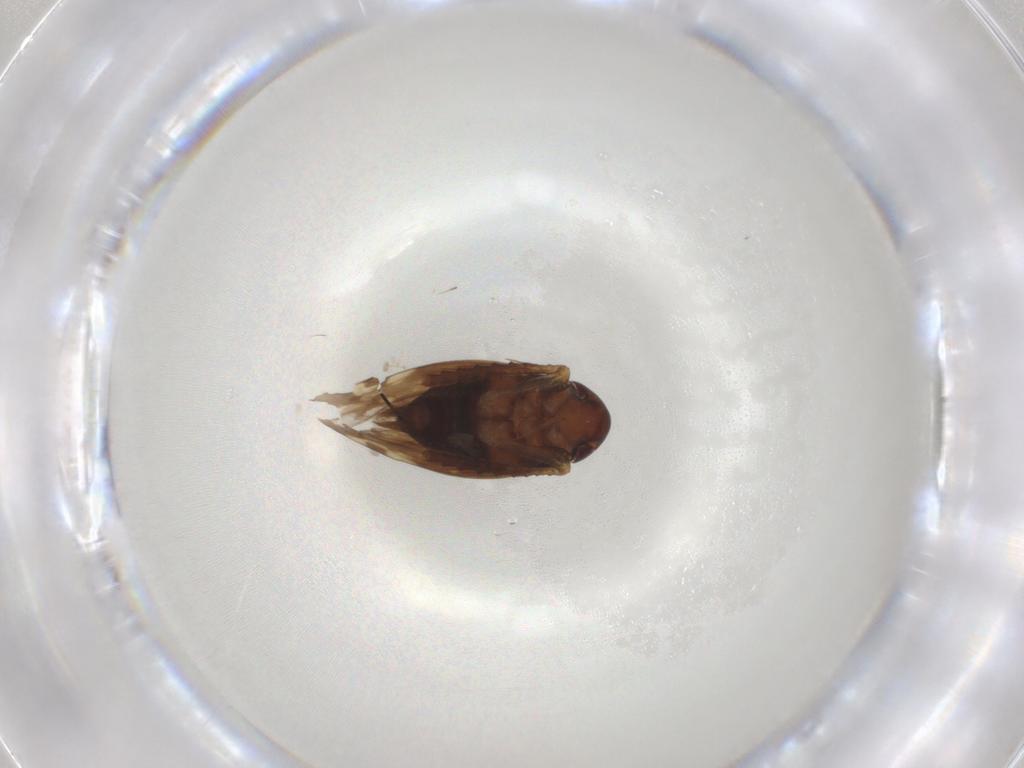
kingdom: Animalia
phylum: Arthropoda
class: Insecta
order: Hemiptera
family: Cicadellidae
